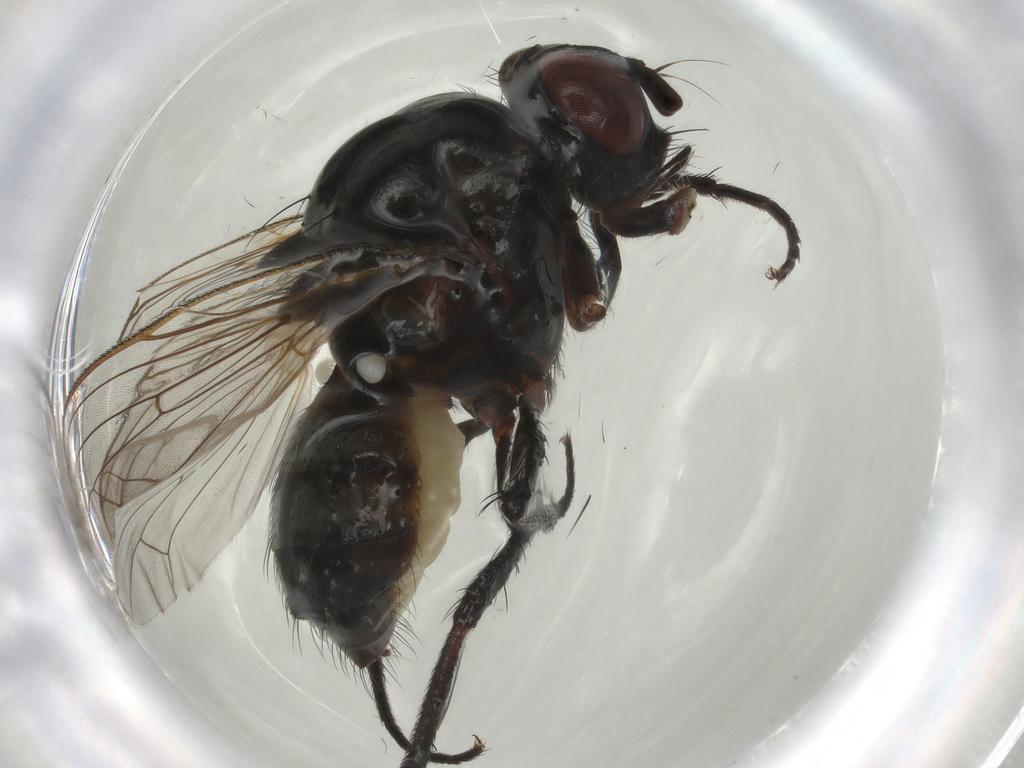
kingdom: Animalia
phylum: Arthropoda
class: Insecta
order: Diptera
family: Anthomyiidae
